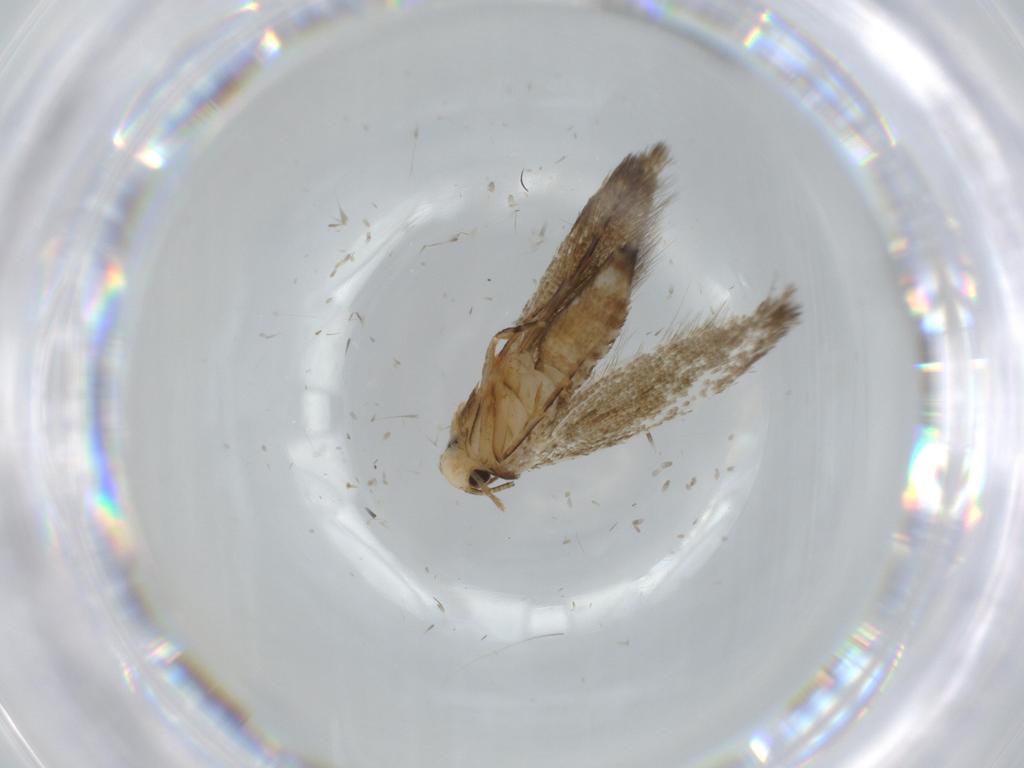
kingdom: Animalia
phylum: Arthropoda
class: Insecta
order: Lepidoptera
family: Tineidae
